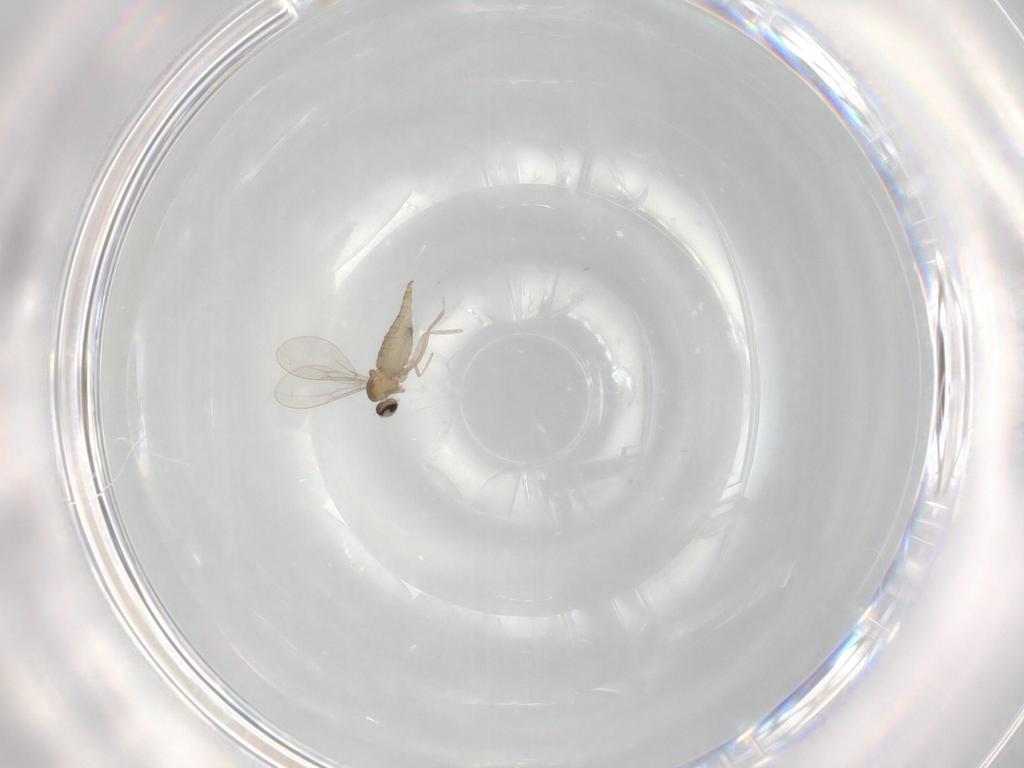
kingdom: Animalia
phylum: Arthropoda
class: Insecta
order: Diptera
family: Cecidomyiidae
